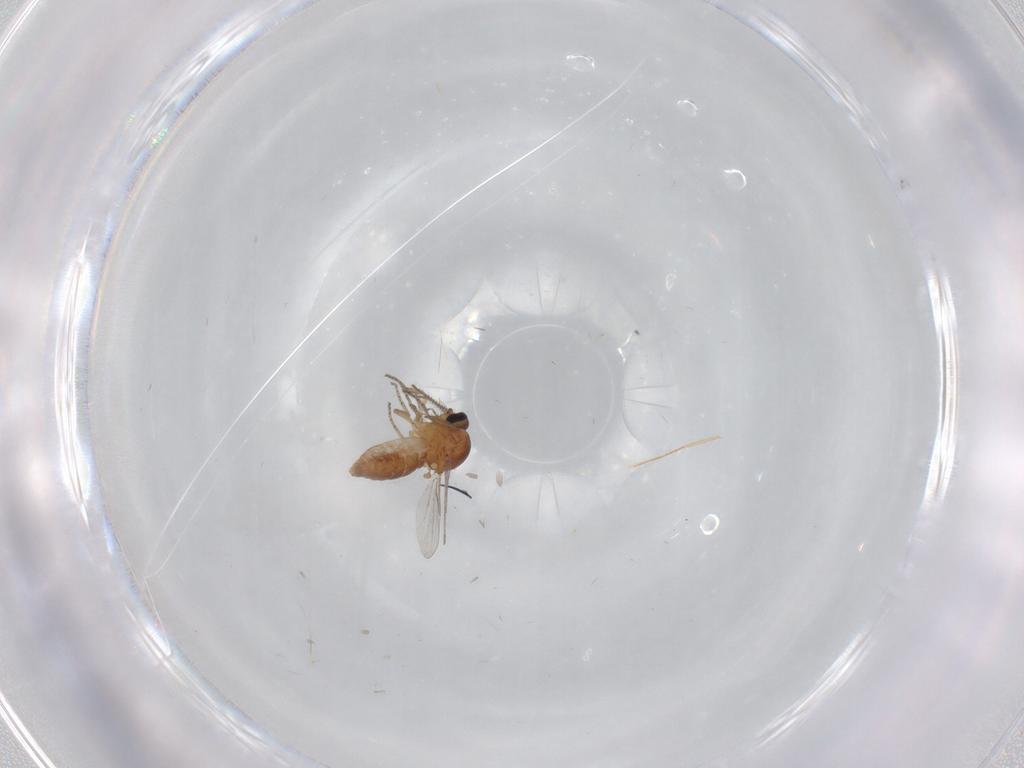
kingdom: Animalia
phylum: Arthropoda
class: Insecta
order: Diptera
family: Ceratopogonidae
